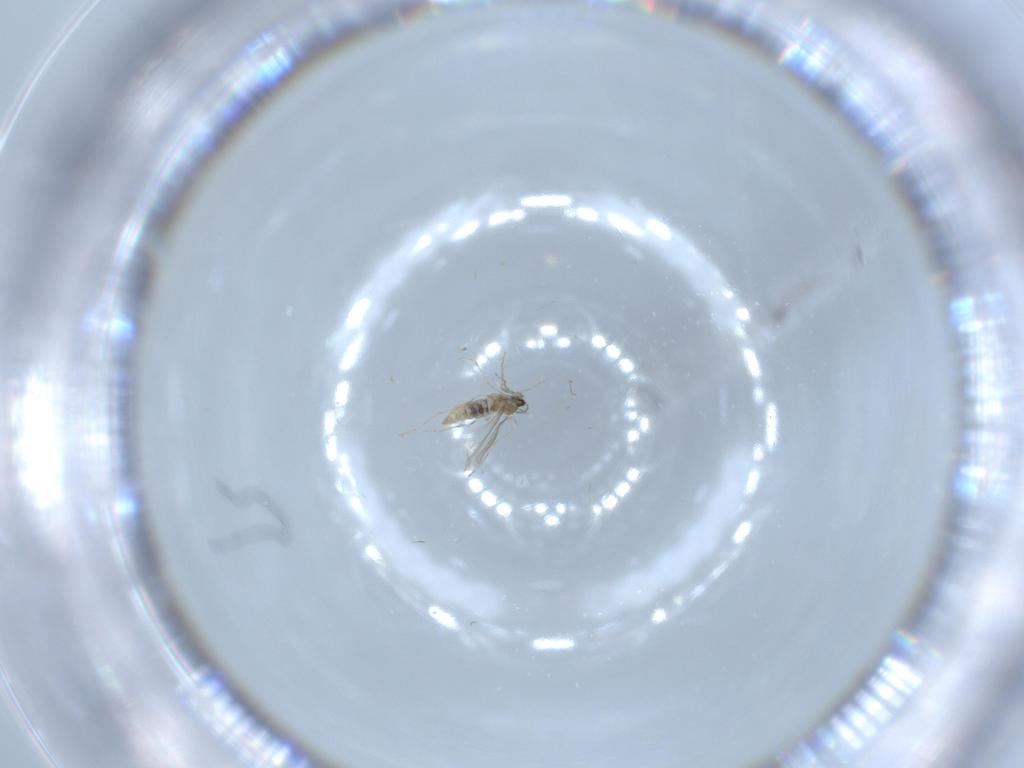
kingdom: Animalia
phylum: Arthropoda
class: Insecta
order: Diptera
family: Cecidomyiidae
